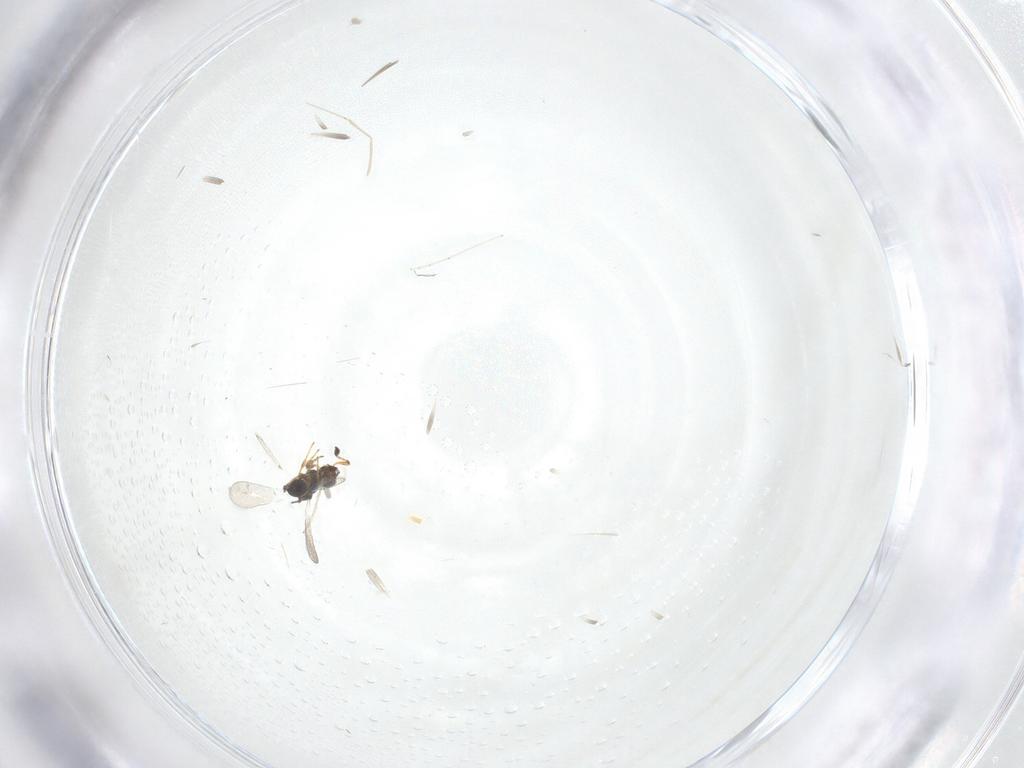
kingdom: Animalia
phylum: Arthropoda
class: Insecta
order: Hymenoptera
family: Platygastridae
